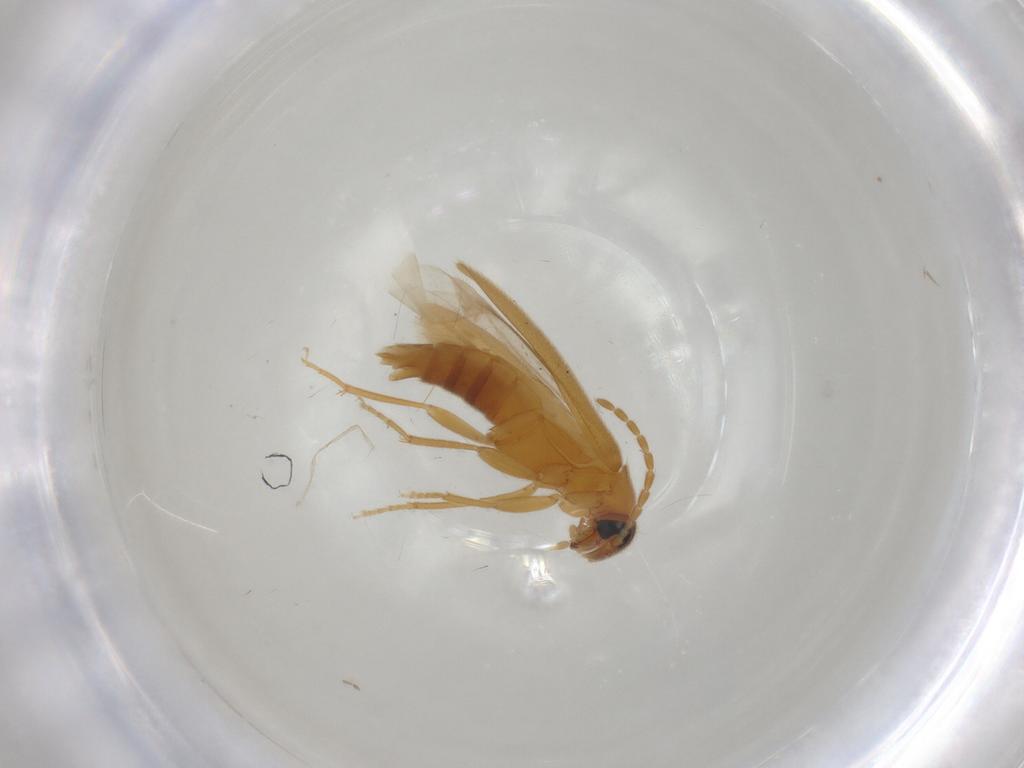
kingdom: Animalia
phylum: Arthropoda
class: Insecta
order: Coleoptera
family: Scraptiidae
